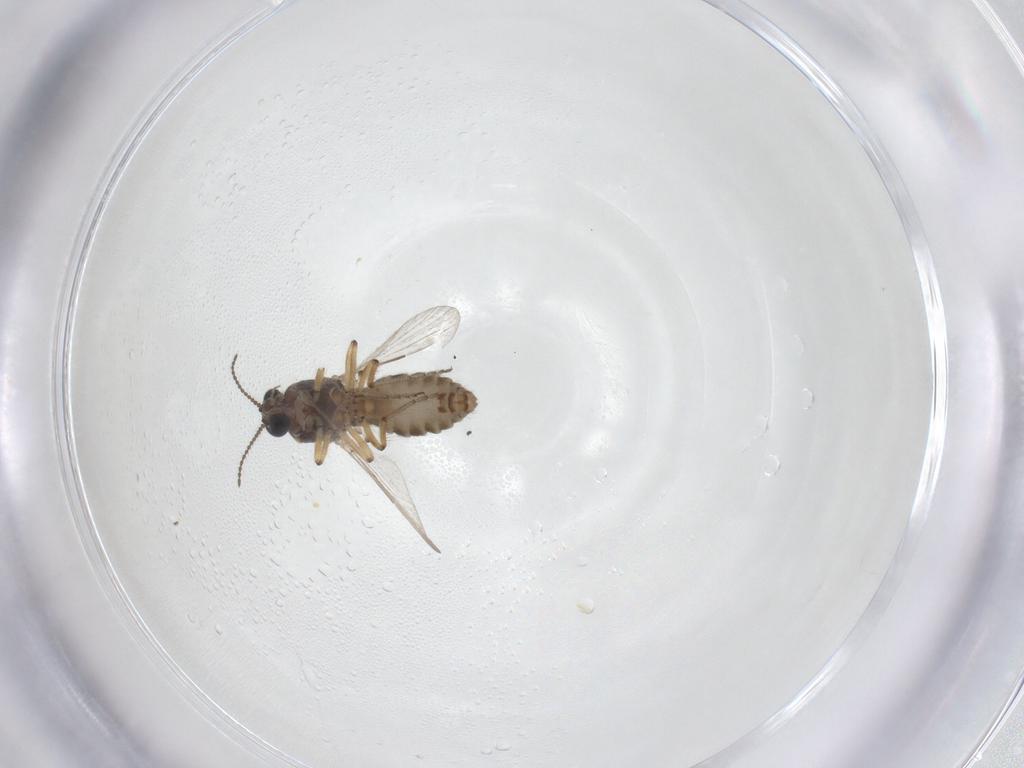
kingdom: Animalia
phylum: Arthropoda
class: Insecta
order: Diptera
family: Ceratopogonidae
